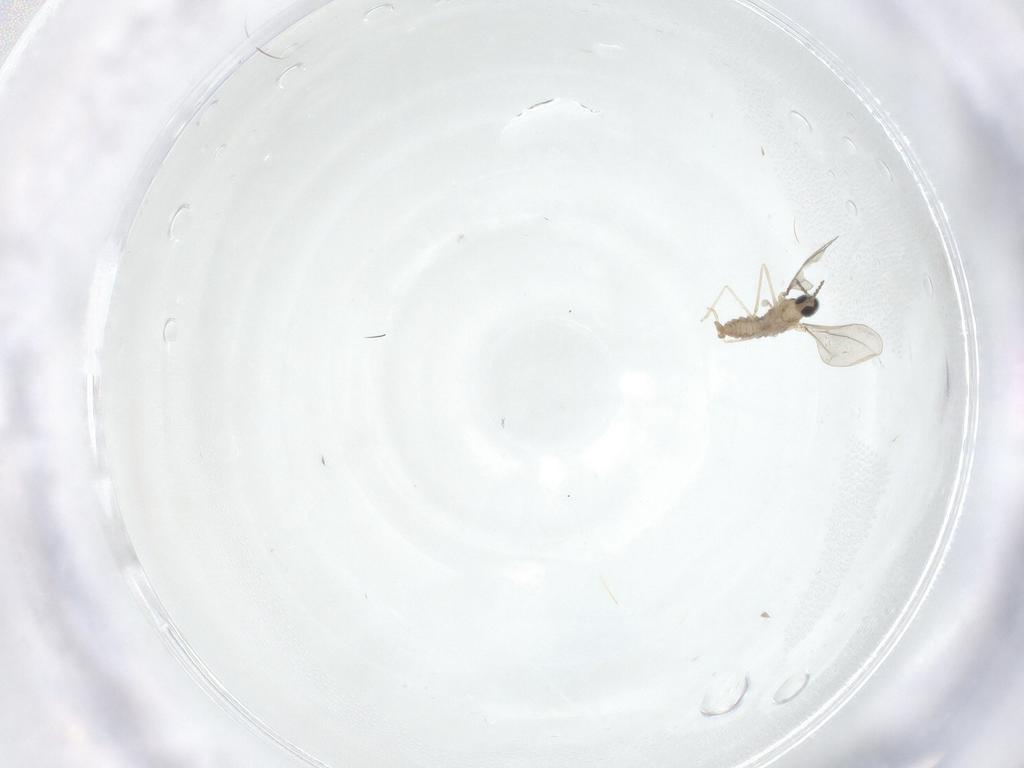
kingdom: Animalia
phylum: Arthropoda
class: Insecta
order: Diptera
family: Cecidomyiidae
